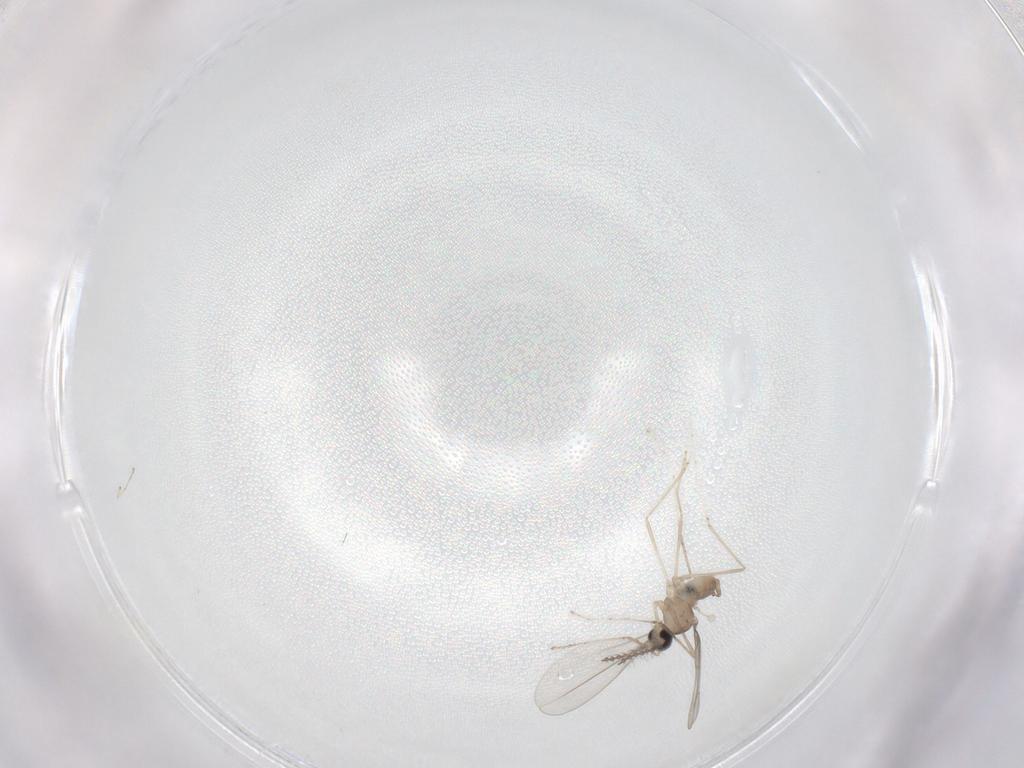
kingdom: Animalia
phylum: Arthropoda
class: Insecta
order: Diptera
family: Cecidomyiidae
